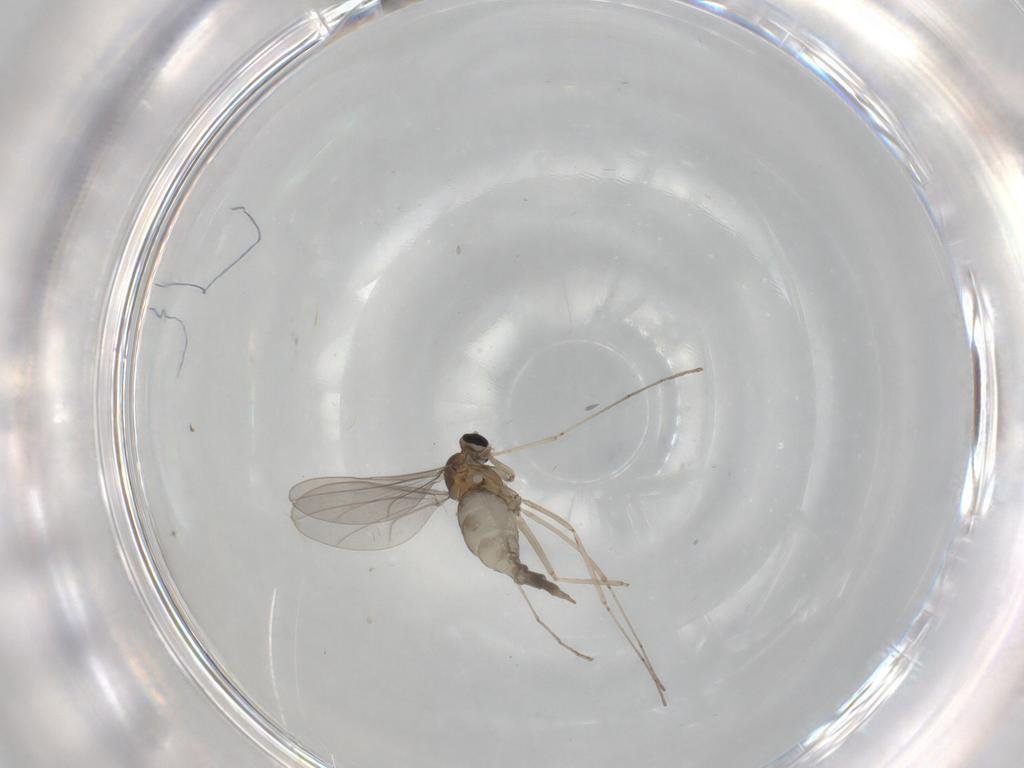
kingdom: Animalia
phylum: Arthropoda
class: Insecta
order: Diptera
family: Cecidomyiidae
